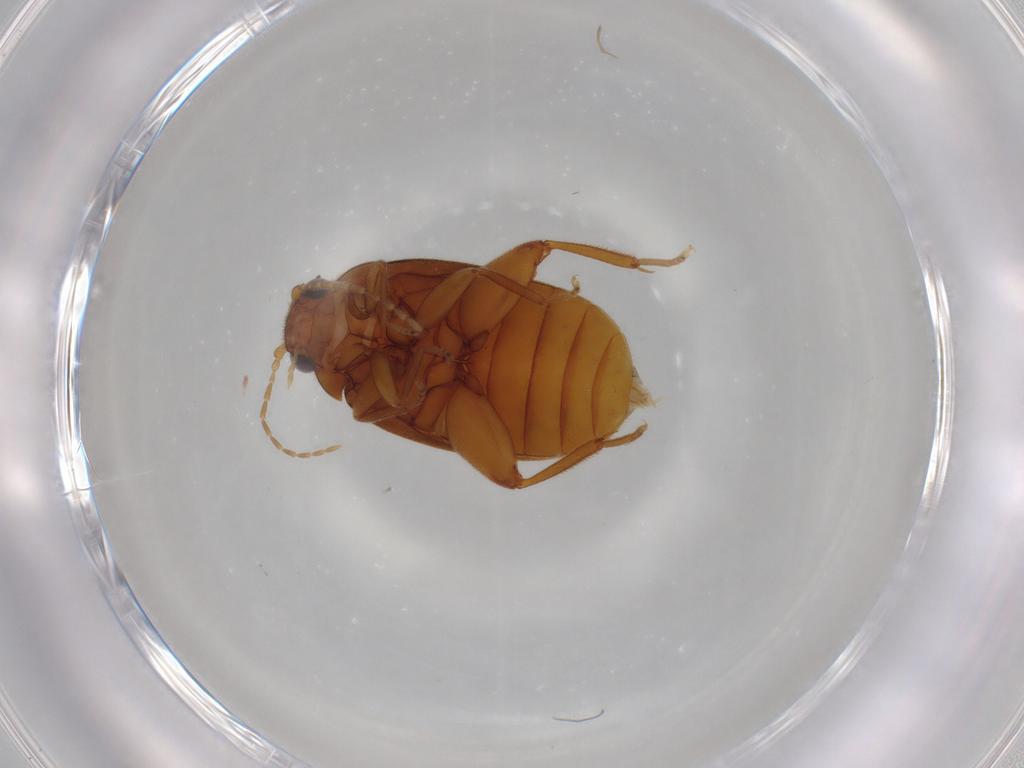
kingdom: Animalia
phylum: Arthropoda
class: Insecta
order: Coleoptera
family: Scirtidae
